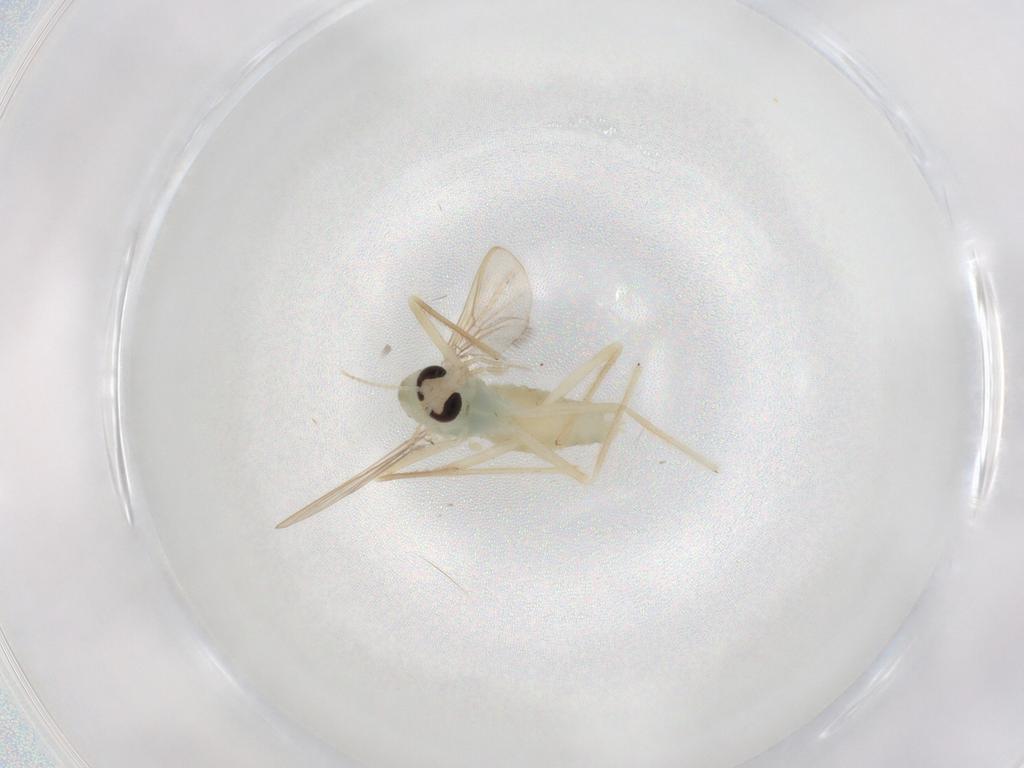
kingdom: Animalia
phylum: Arthropoda
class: Insecta
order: Diptera
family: Chironomidae
